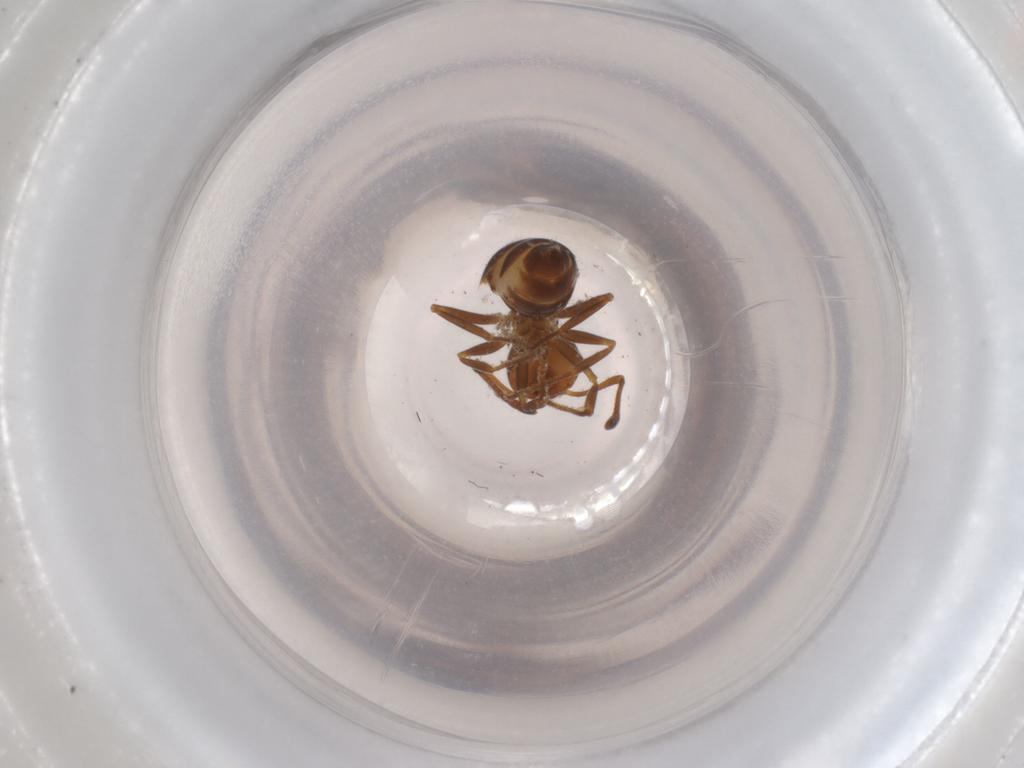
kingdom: Animalia
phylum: Arthropoda
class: Insecta
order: Hymenoptera
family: Formicidae
